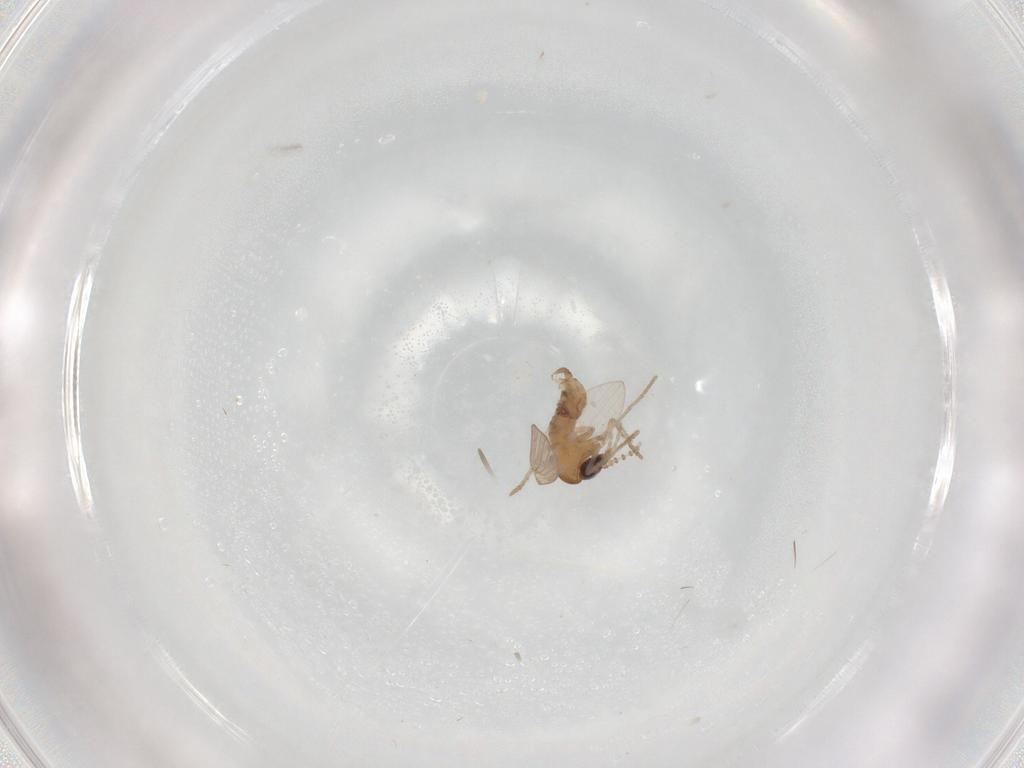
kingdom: Animalia
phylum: Arthropoda
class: Insecta
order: Diptera
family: Psychodidae
